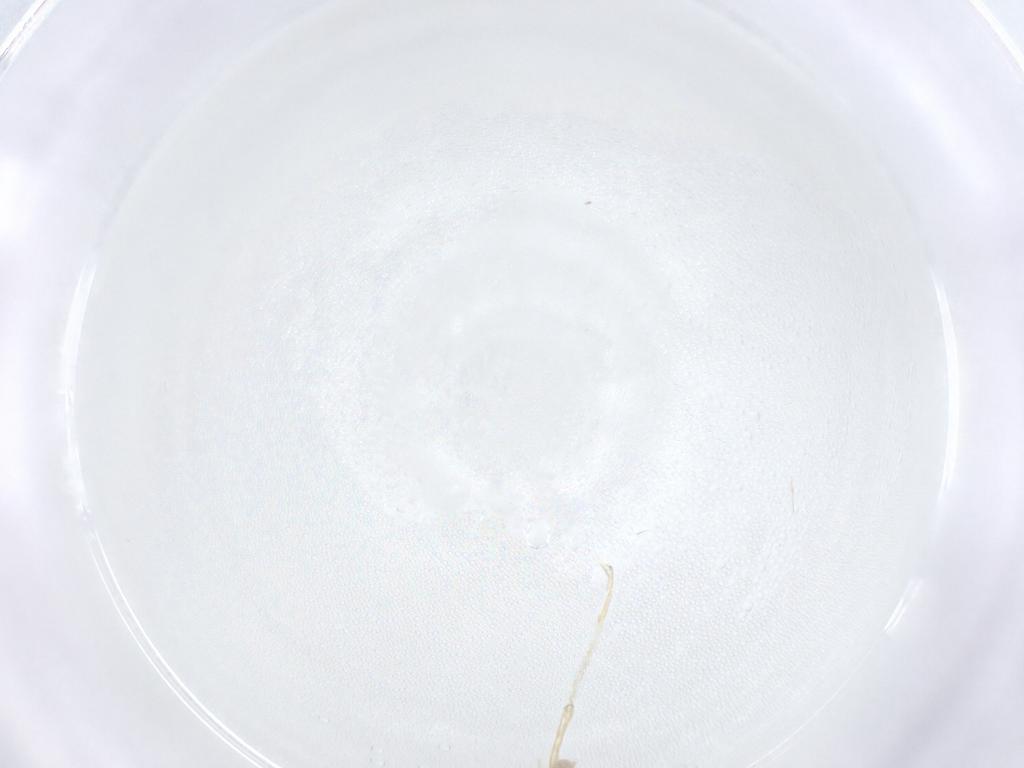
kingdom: Animalia
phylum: Arthropoda
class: Insecta
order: Diptera
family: Cecidomyiidae
